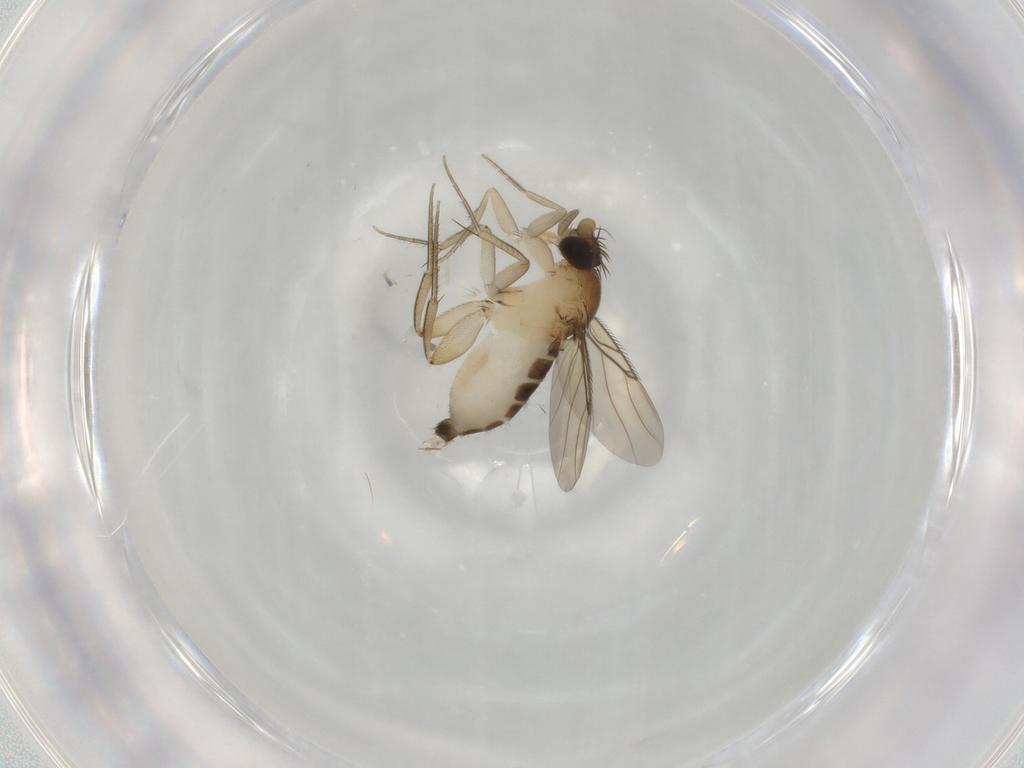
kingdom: Animalia
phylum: Arthropoda
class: Insecta
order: Diptera
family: Phoridae
